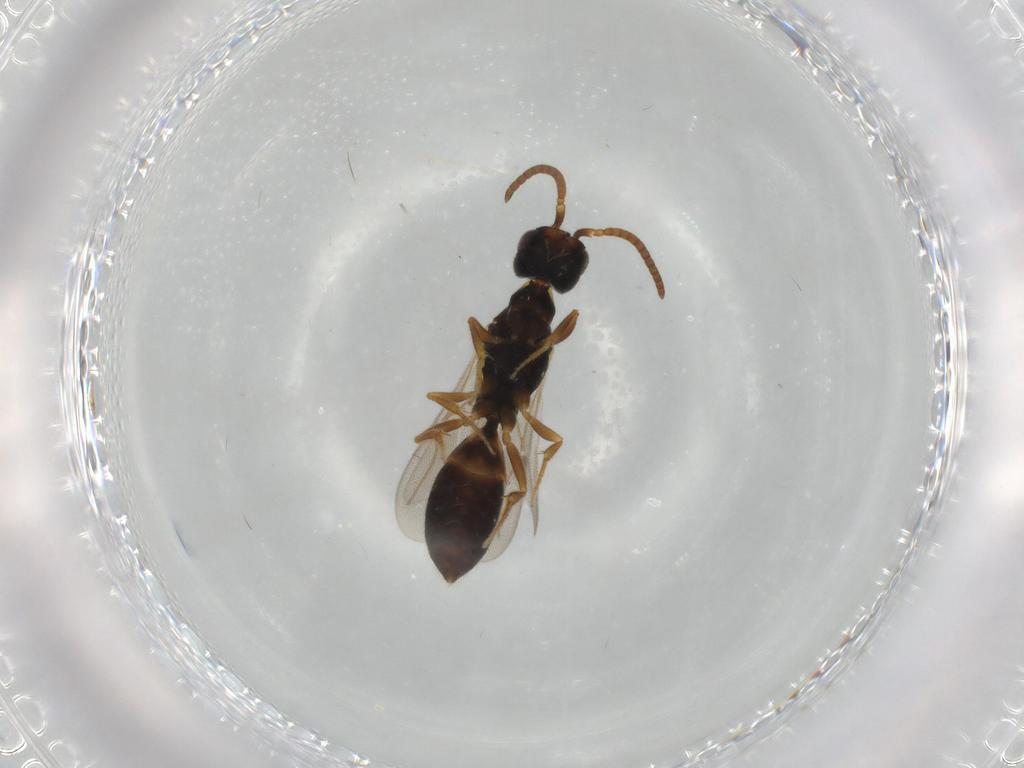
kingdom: Animalia
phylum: Arthropoda
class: Insecta
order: Hymenoptera
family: Bethylidae
